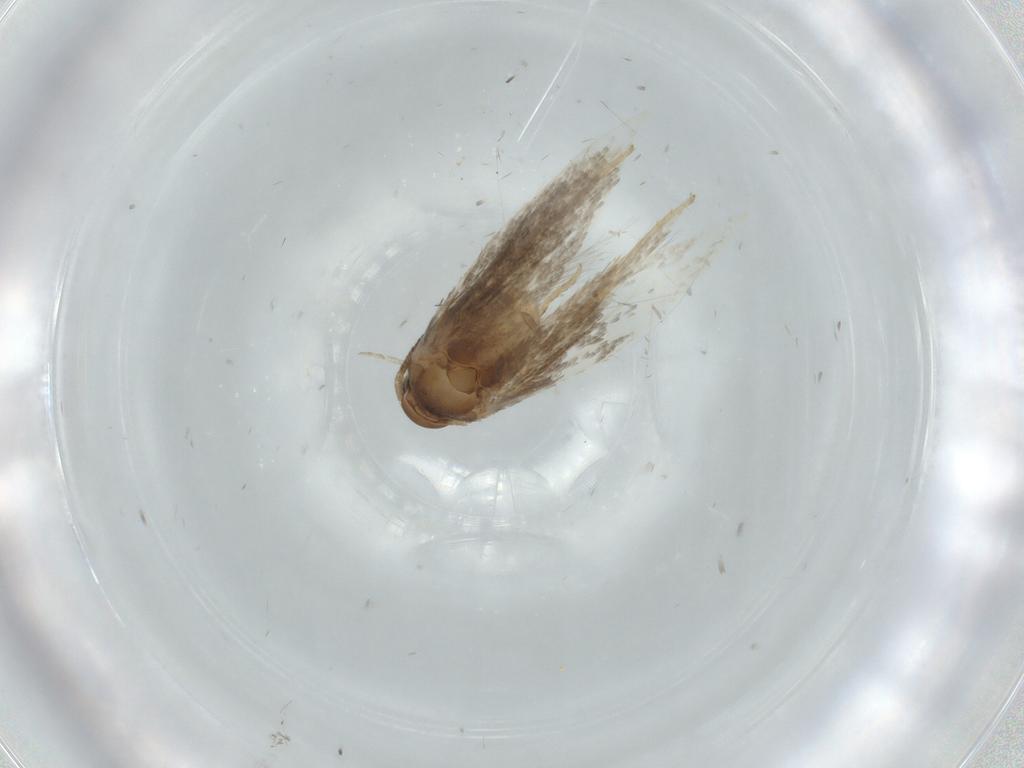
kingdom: Animalia
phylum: Arthropoda
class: Insecta
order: Lepidoptera
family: Elachistidae
